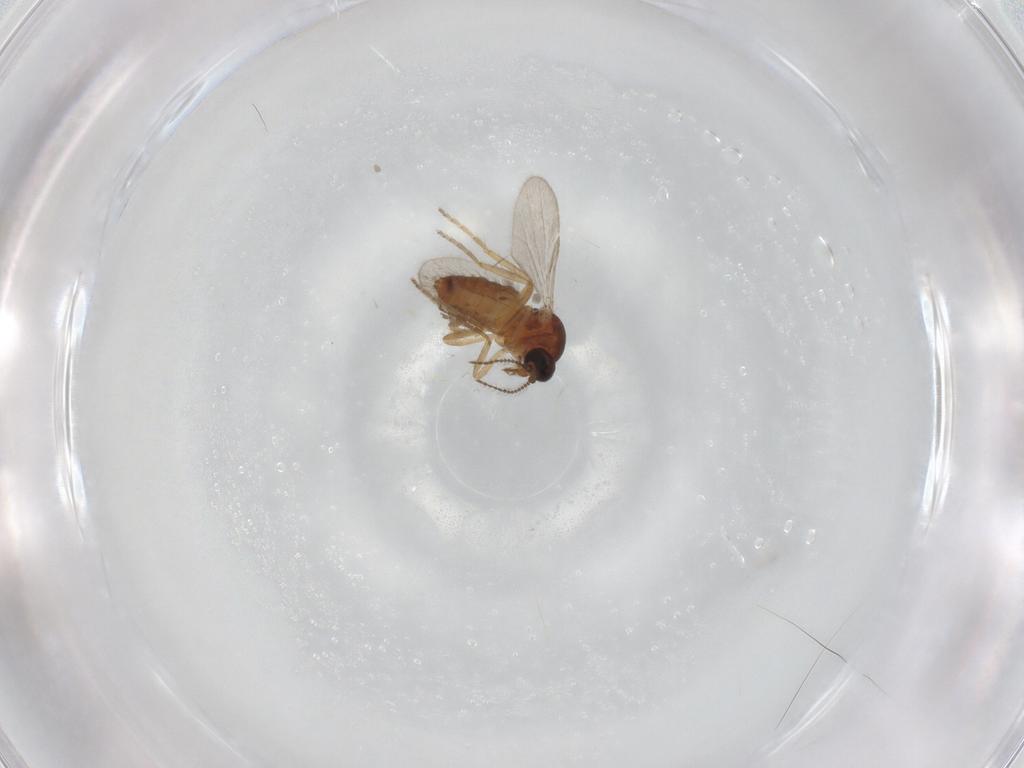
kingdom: Animalia
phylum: Arthropoda
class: Insecta
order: Diptera
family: Ceratopogonidae
